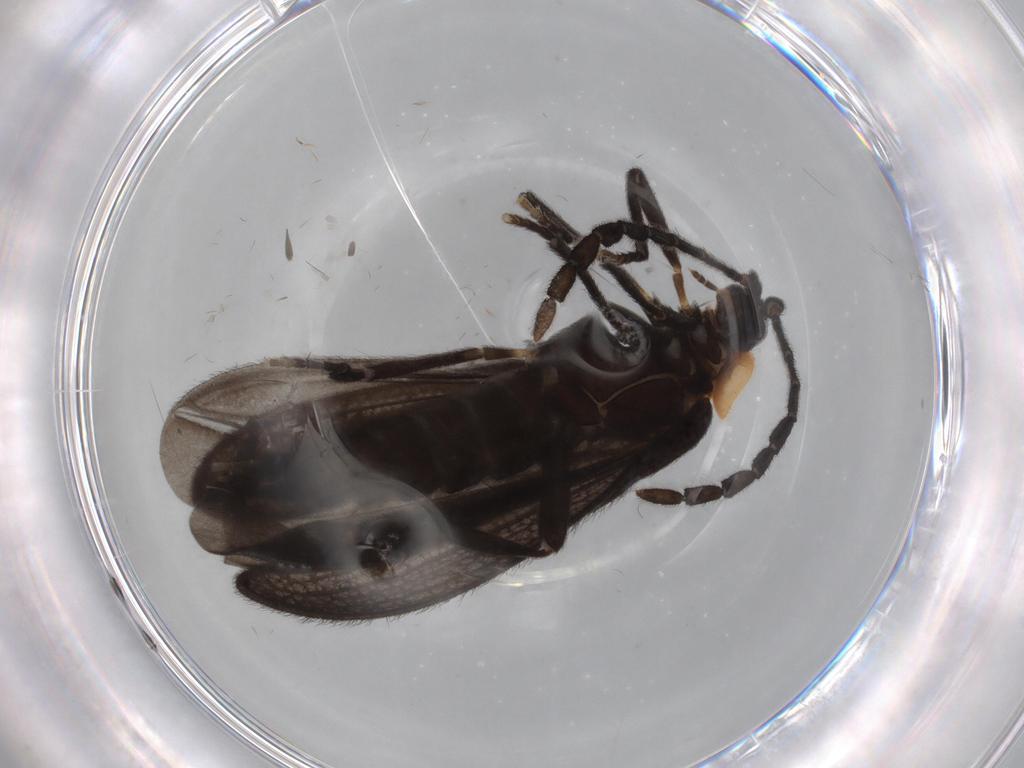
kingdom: Animalia
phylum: Arthropoda
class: Insecta
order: Coleoptera
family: Lycidae
